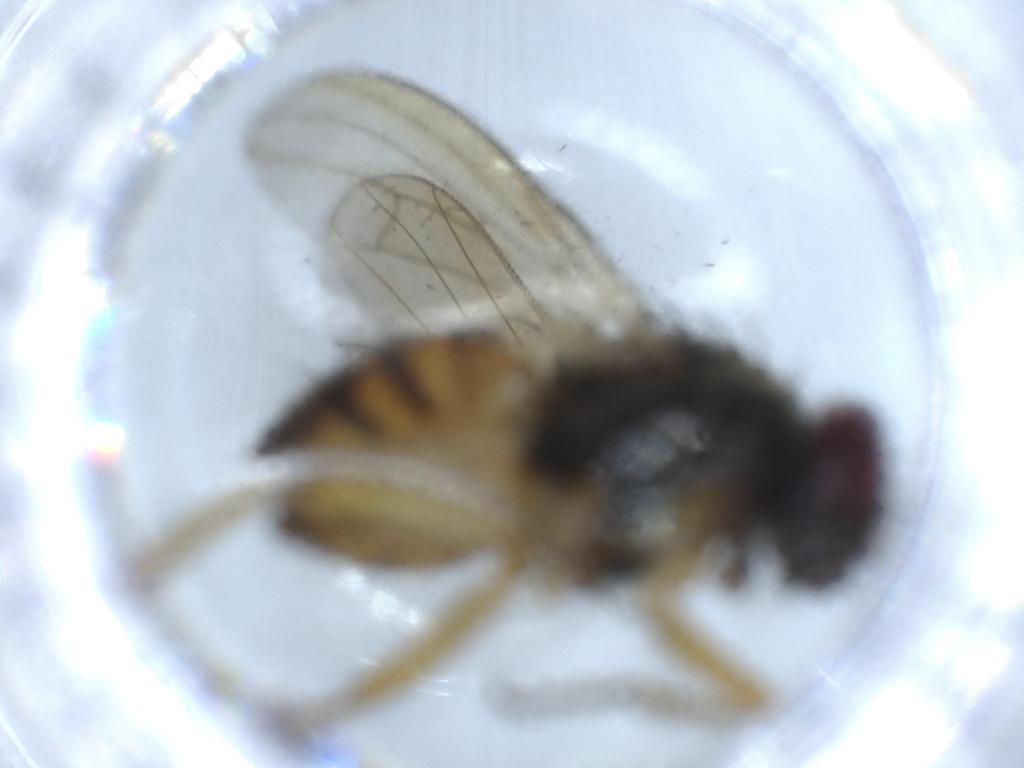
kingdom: Animalia
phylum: Arthropoda
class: Insecta
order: Diptera
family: Muscidae
